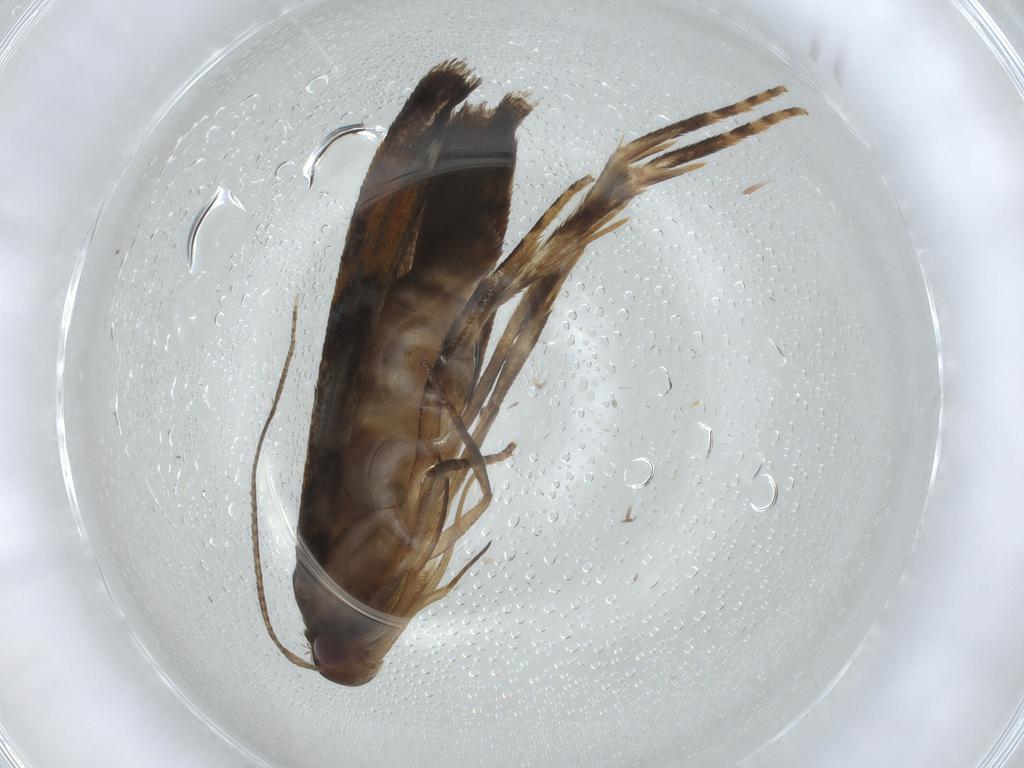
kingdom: Animalia
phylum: Arthropoda
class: Insecta
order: Lepidoptera
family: Gelechiidae
